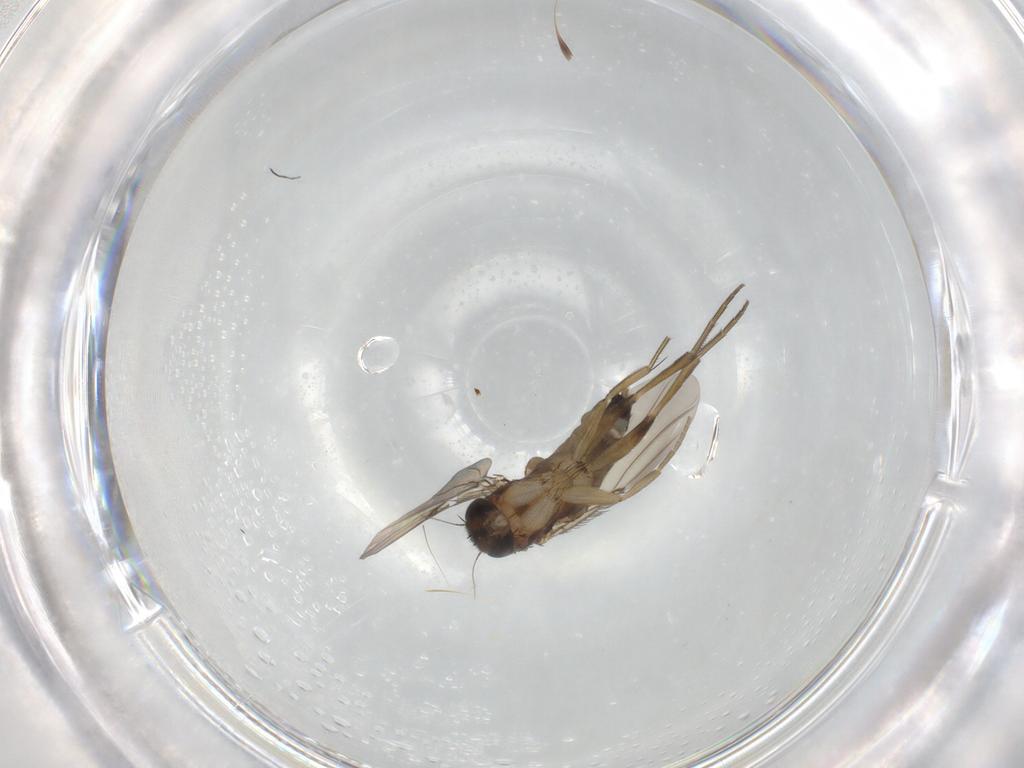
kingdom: Animalia
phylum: Arthropoda
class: Insecta
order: Diptera
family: Phoridae
